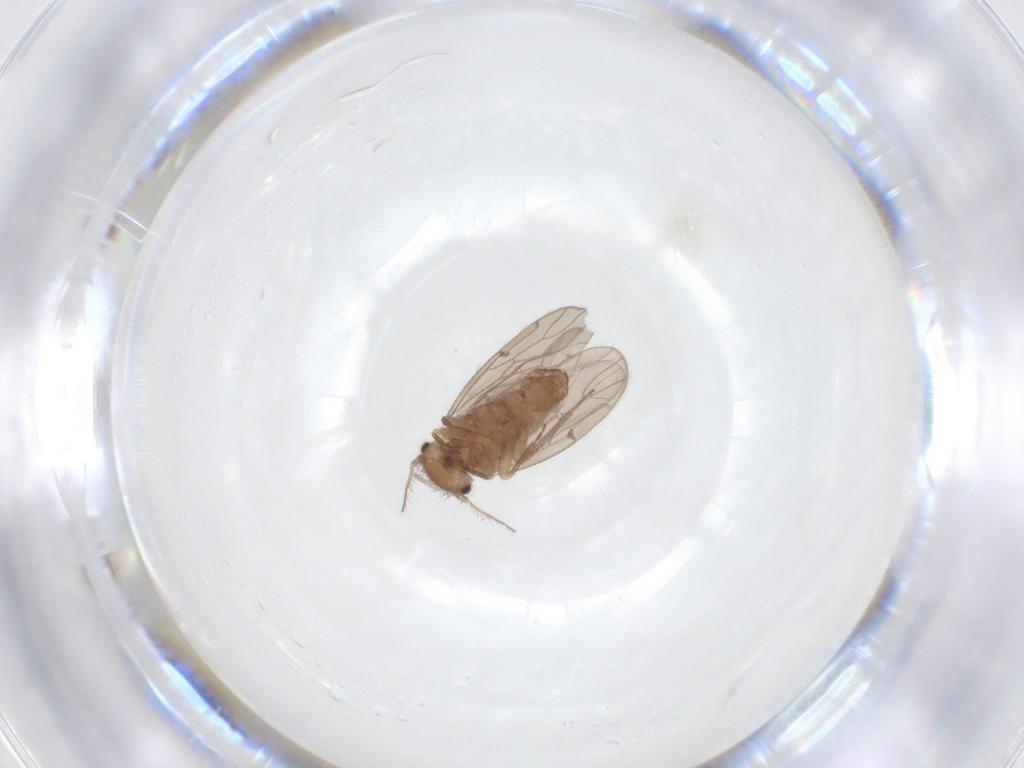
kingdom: Animalia
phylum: Arthropoda
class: Insecta
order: Psocodea
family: Ectopsocidae
